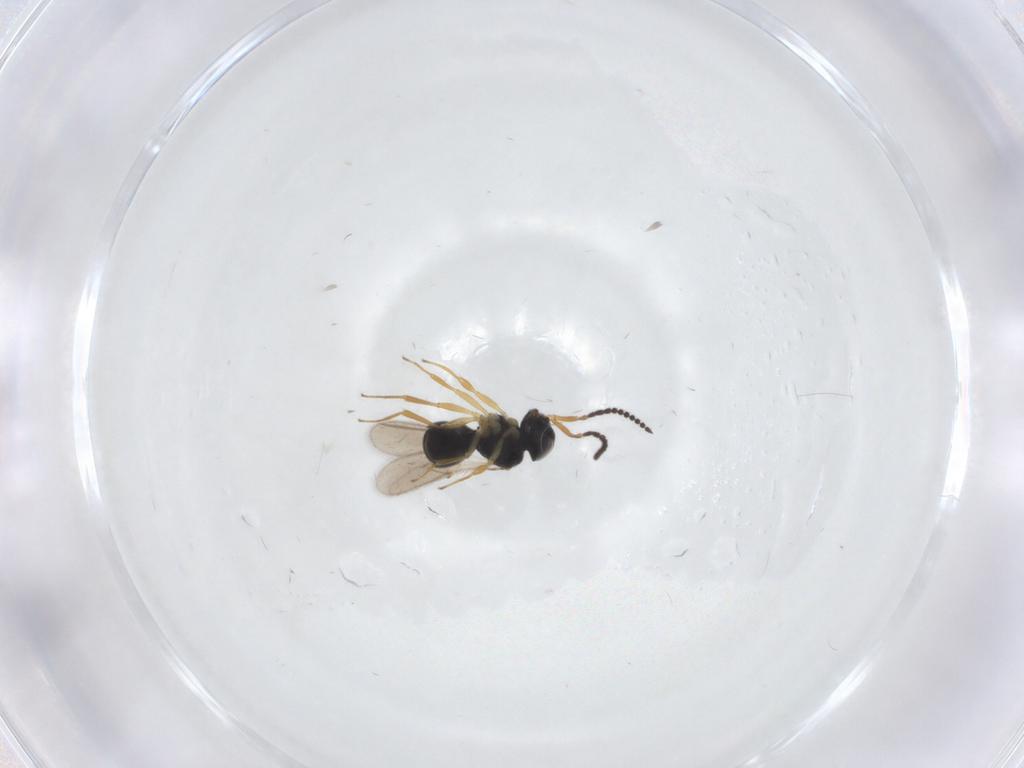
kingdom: Animalia
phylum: Arthropoda
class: Insecta
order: Hymenoptera
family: Scelionidae
